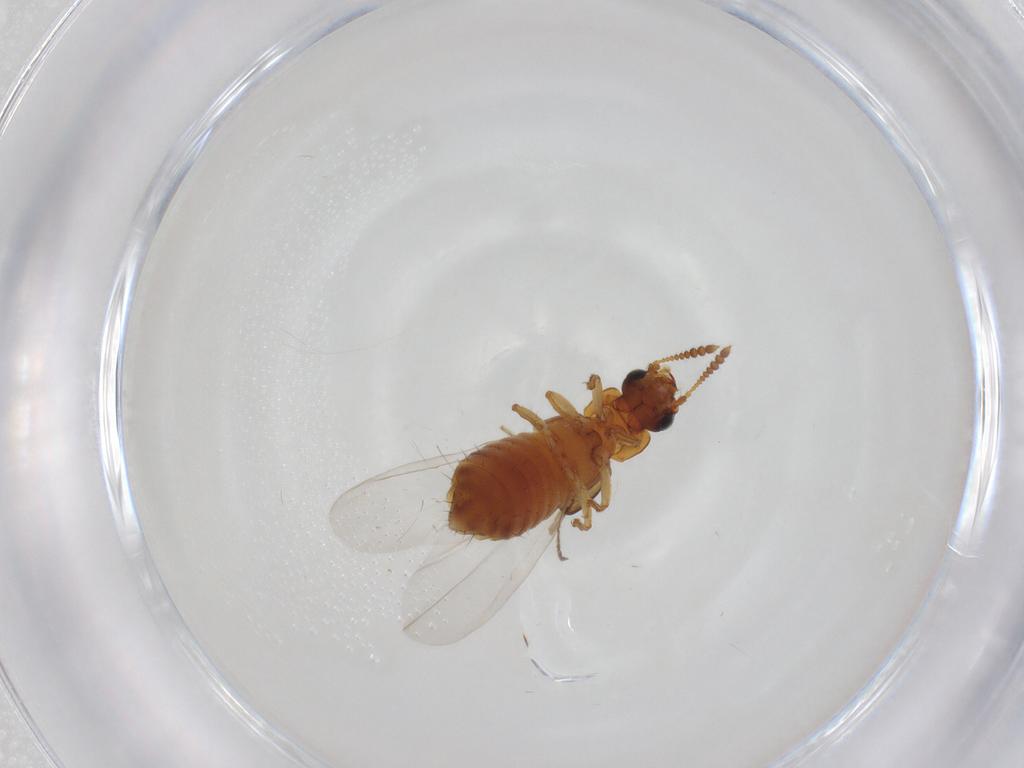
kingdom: Animalia
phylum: Arthropoda
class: Insecta
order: Coleoptera
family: Staphylinidae
